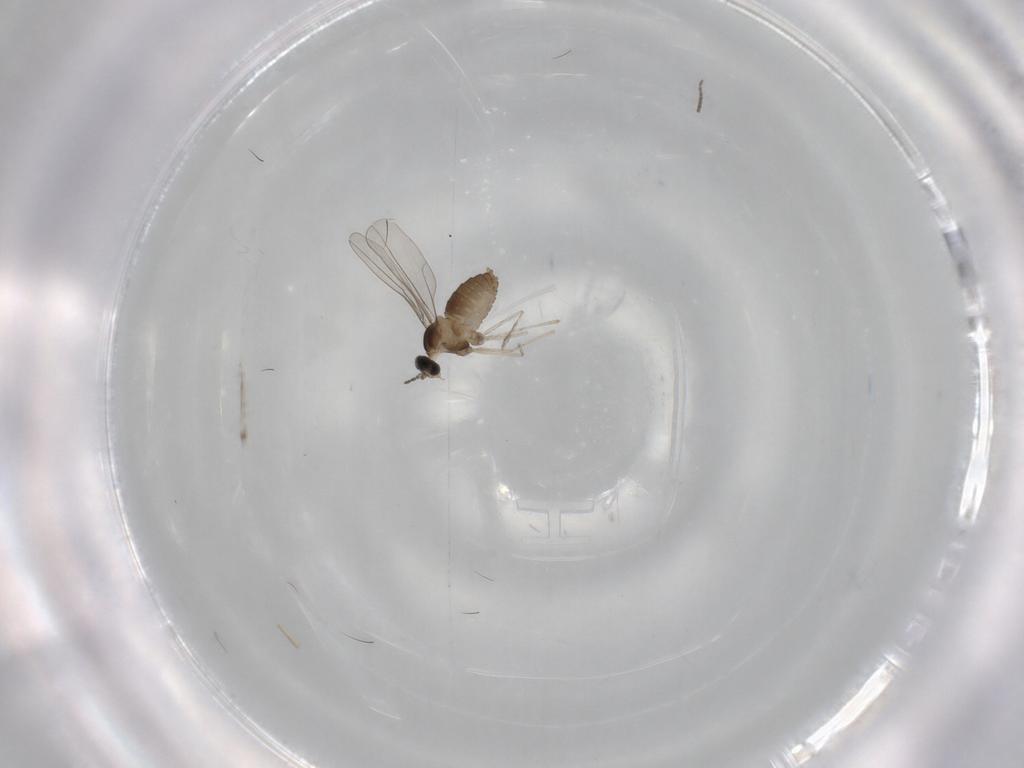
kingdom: Animalia
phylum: Arthropoda
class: Insecta
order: Diptera
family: Cecidomyiidae
